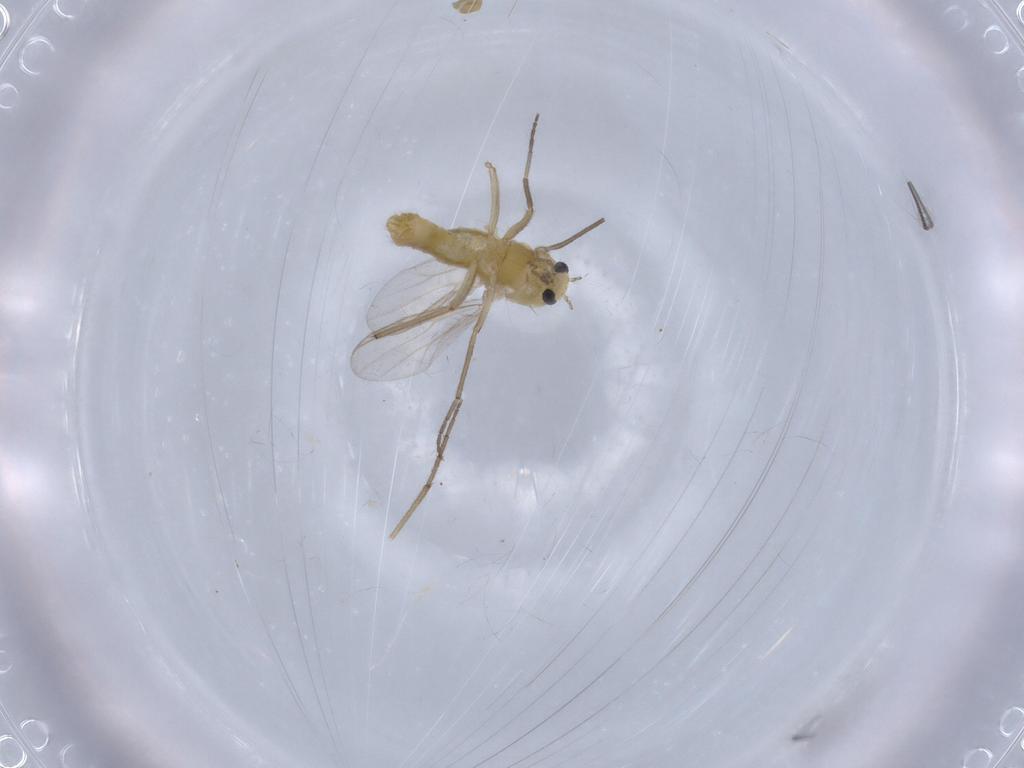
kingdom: Animalia
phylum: Arthropoda
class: Insecta
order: Diptera
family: Chironomidae
